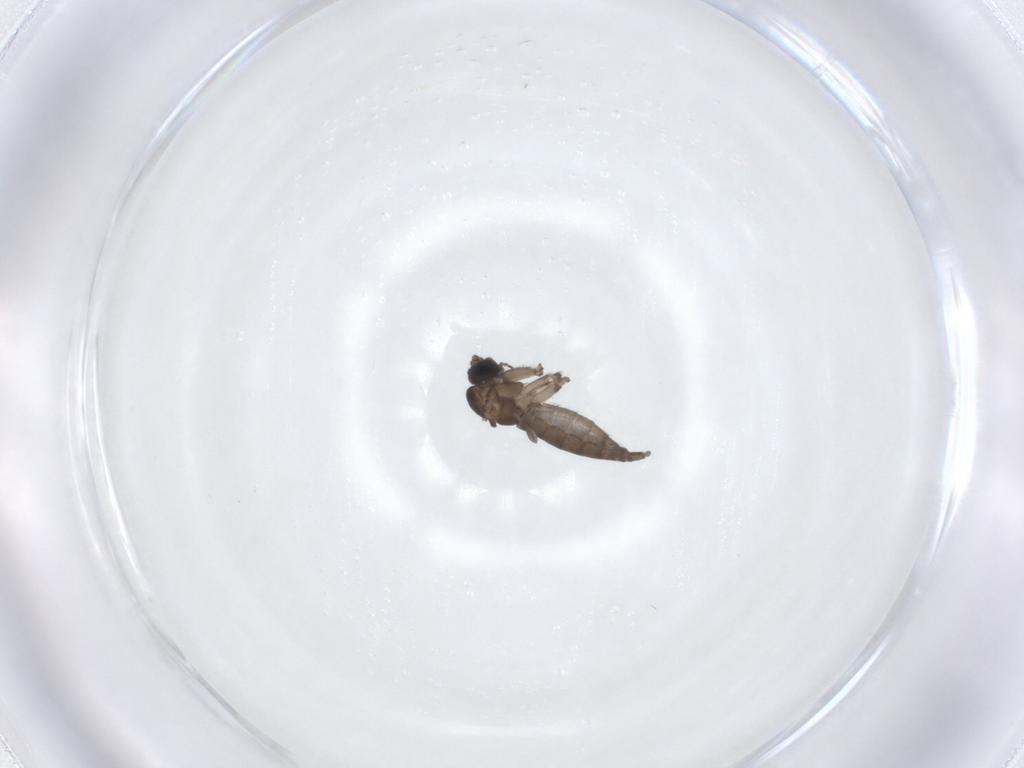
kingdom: Animalia
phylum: Arthropoda
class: Insecta
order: Diptera
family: Sciaridae
